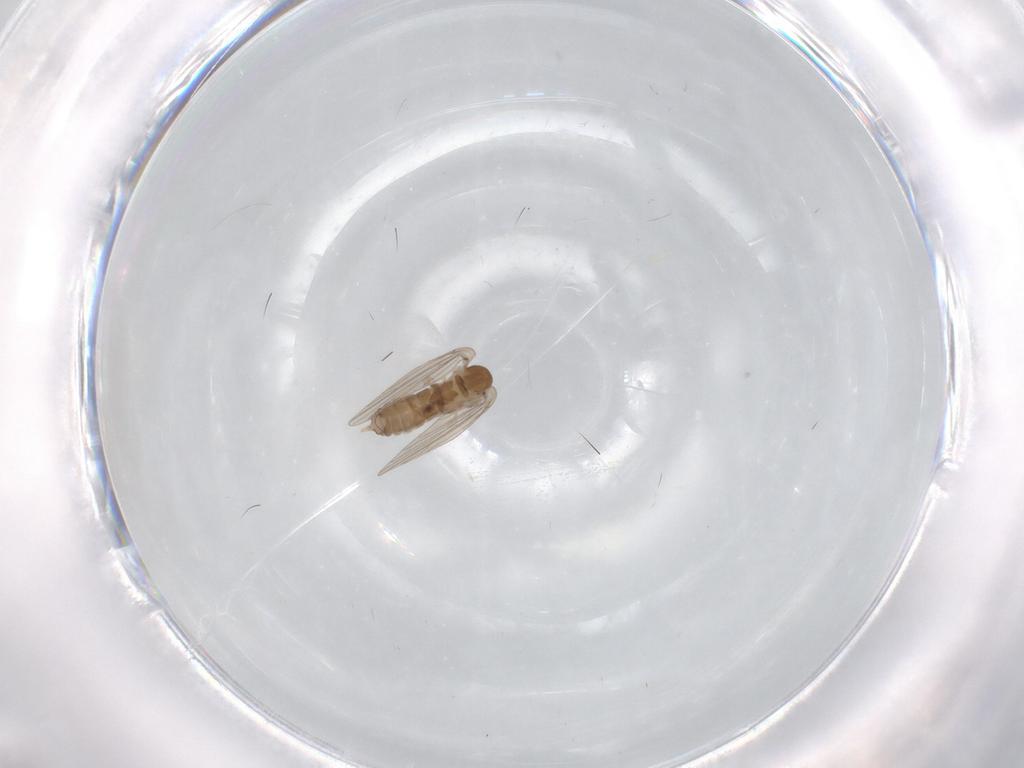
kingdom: Animalia
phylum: Arthropoda
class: Insecta
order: Diptera
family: Psychodidae
